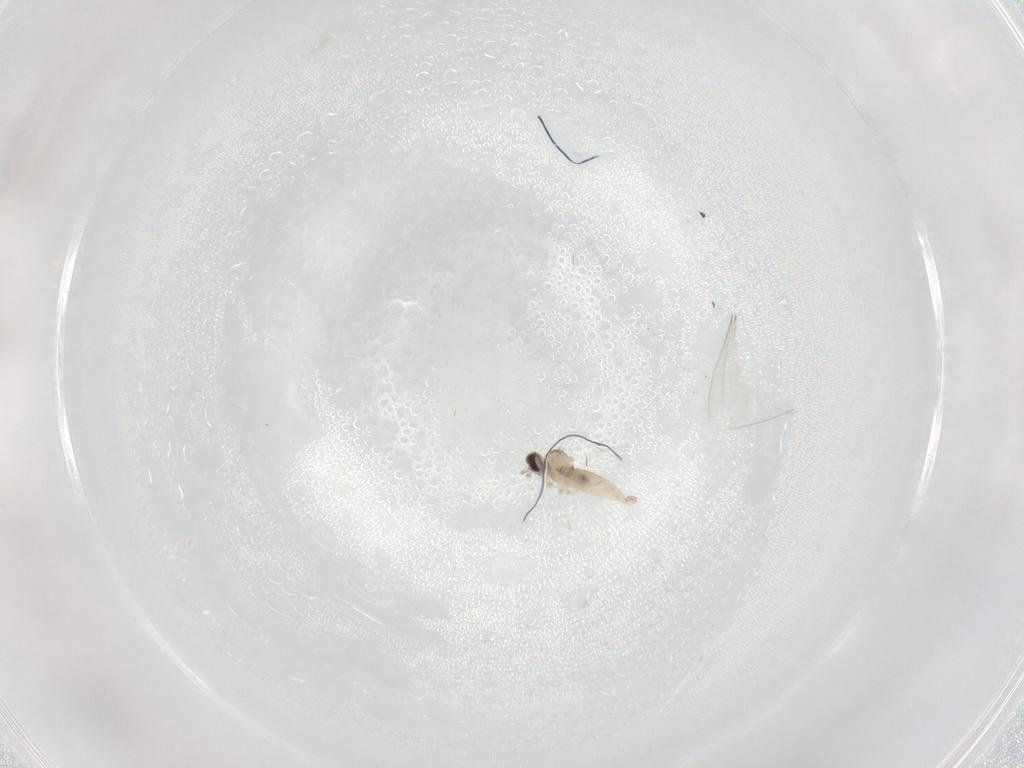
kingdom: Animalia
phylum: Arthropoda
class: Insecta
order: Diptera
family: Cecidomyiidae
